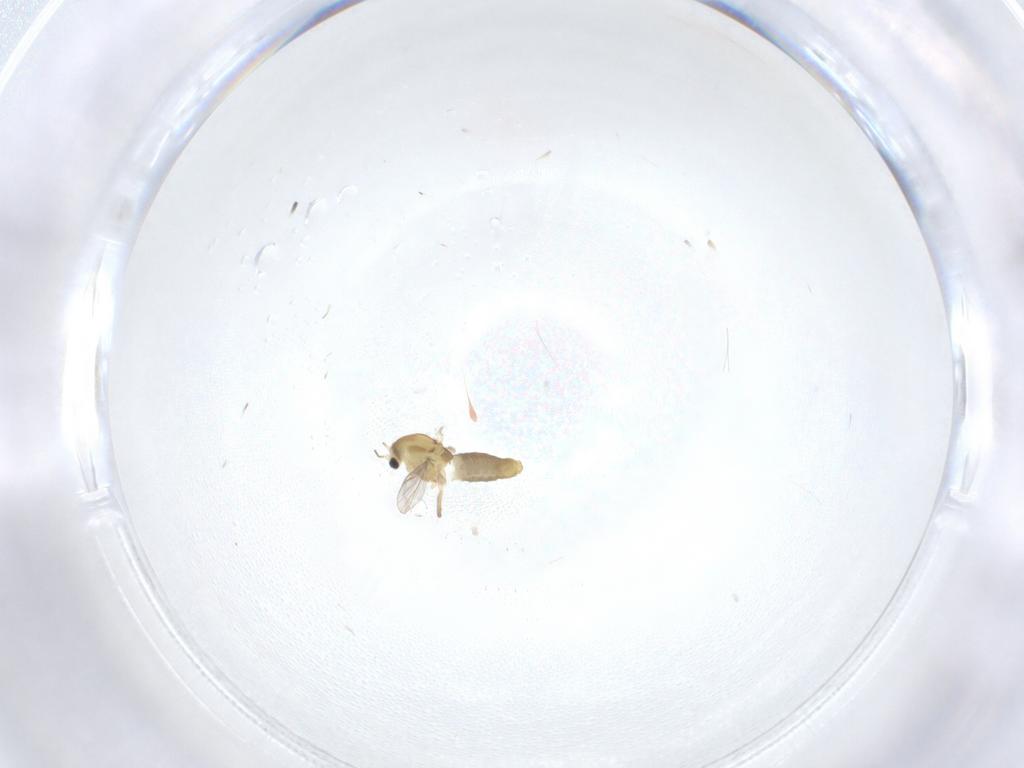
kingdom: Animalia
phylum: Arthropoda
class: Insecta
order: Diptera
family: Chironomidae
